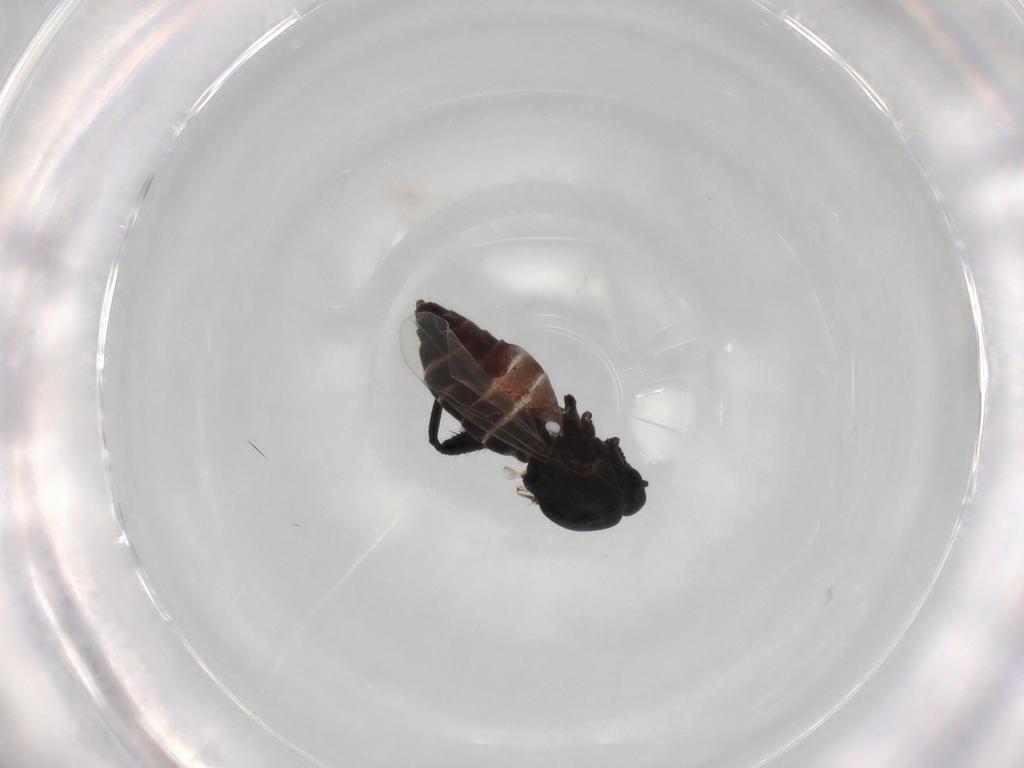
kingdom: Animalia
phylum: Arthropoda
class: Insecta
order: Diptera
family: Ceratopogonidae
